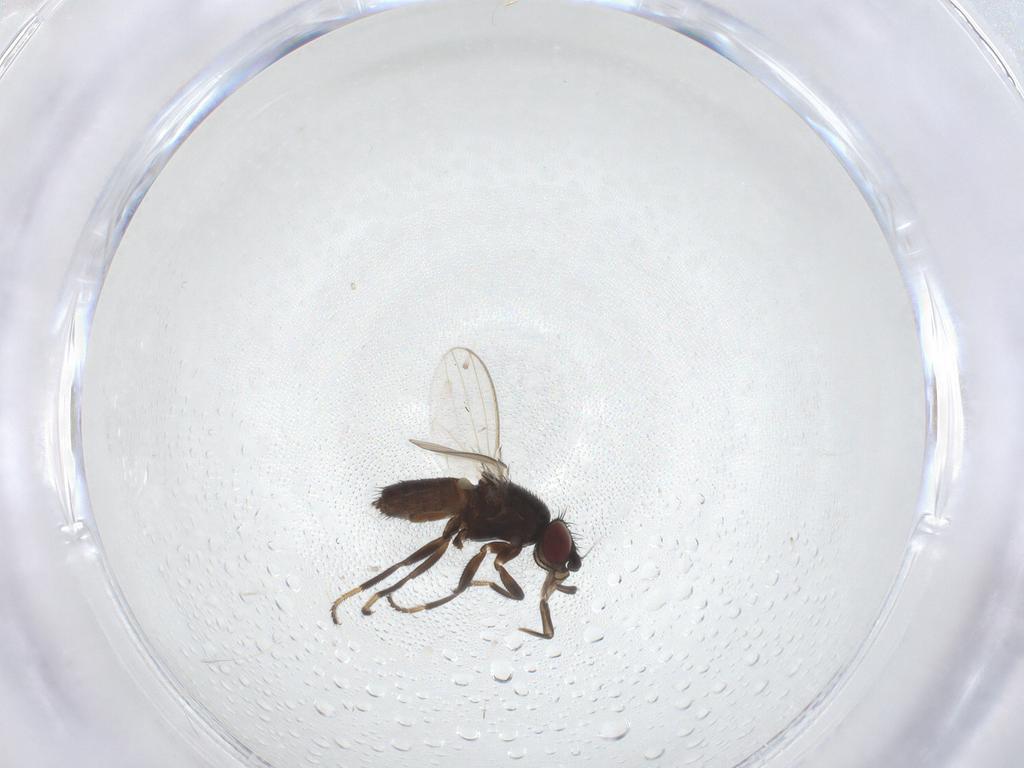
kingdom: Animalia
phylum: Arthropoda
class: Insecta
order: Diptera
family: Milichiidae
